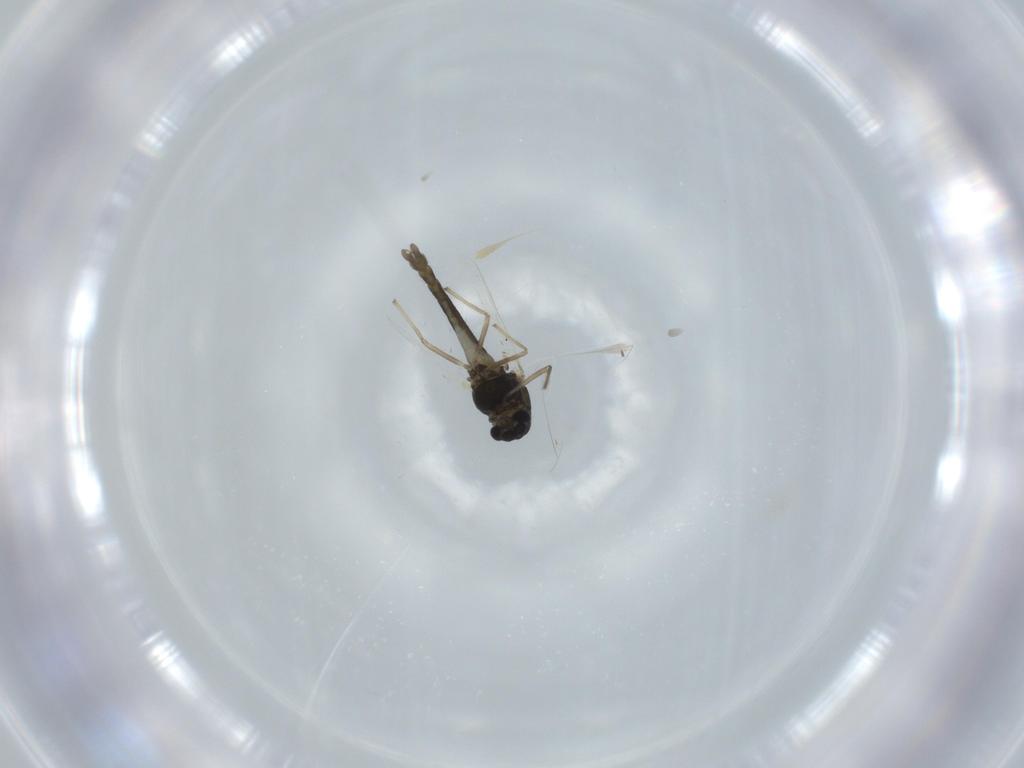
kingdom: Animalia
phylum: Arthropoda
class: Insecta
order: Diptera
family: Chironomidae
